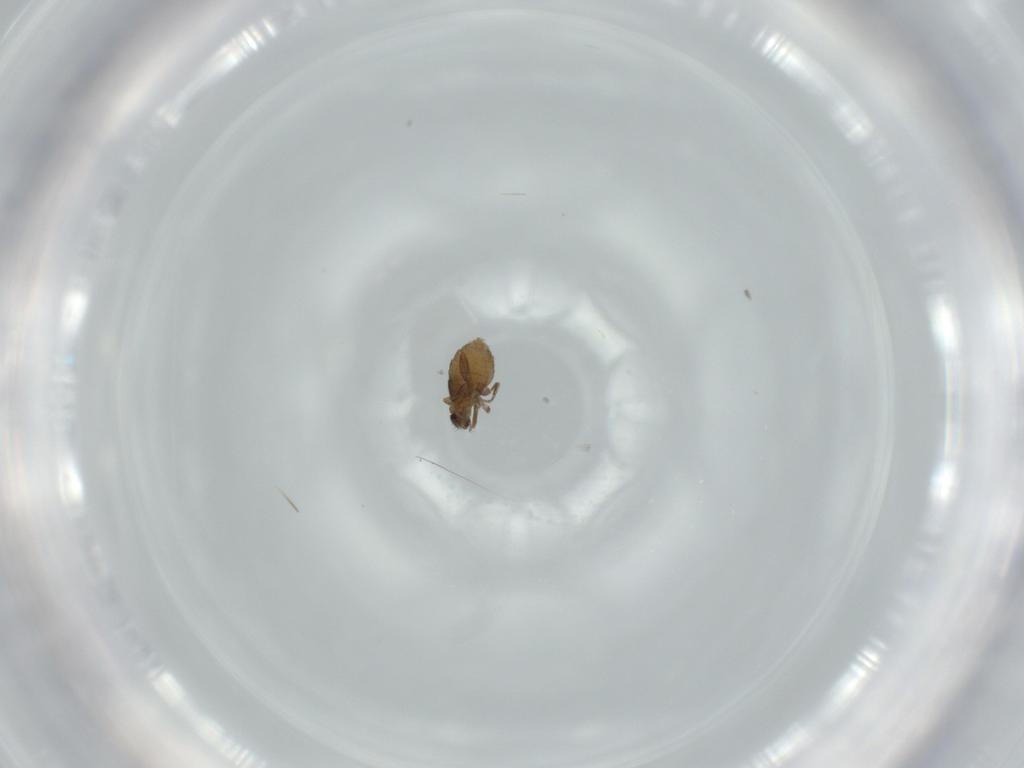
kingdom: Animalia
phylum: Arthropoda
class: Insecta
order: Diptera
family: Phoridae
